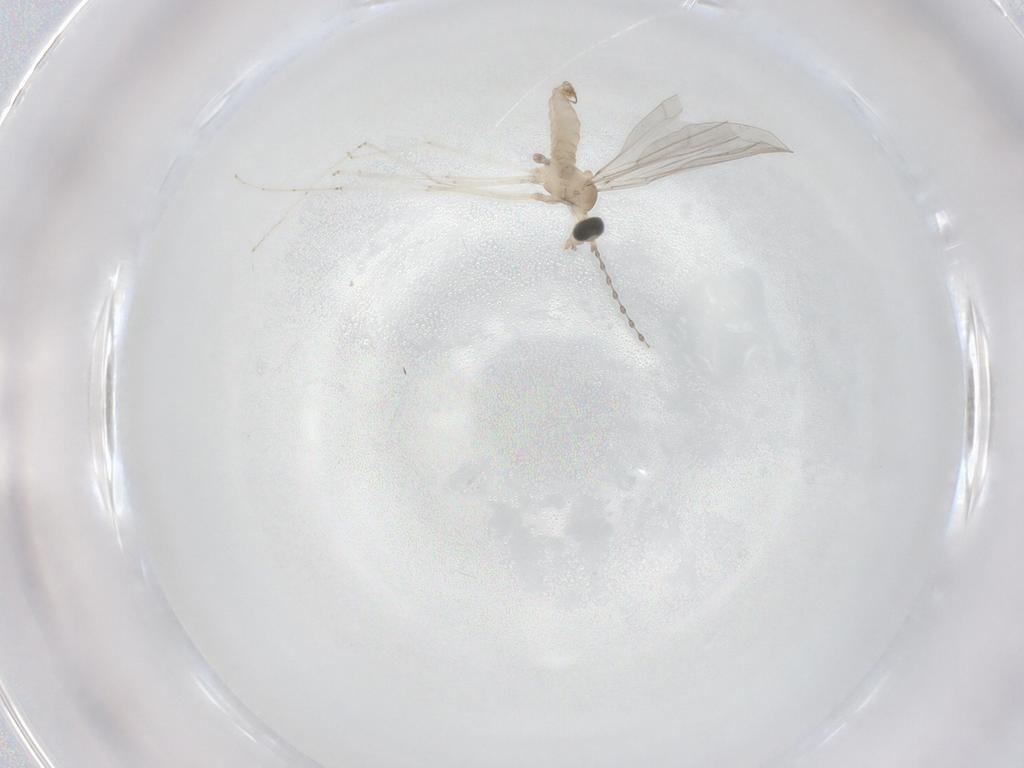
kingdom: Animalia
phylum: Arthropoda
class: Insecta
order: Diptera
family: Cecidomyiidae
